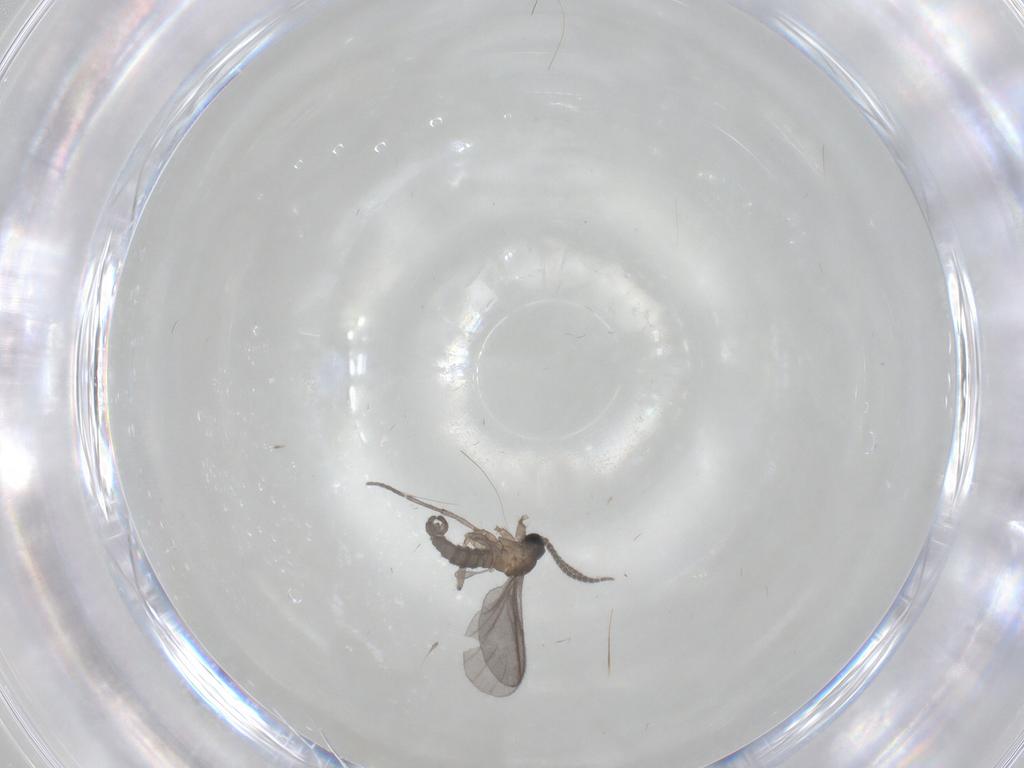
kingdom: Animalia
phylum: Arthropoda
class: Insecta
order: Diptera
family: Sciaridae
